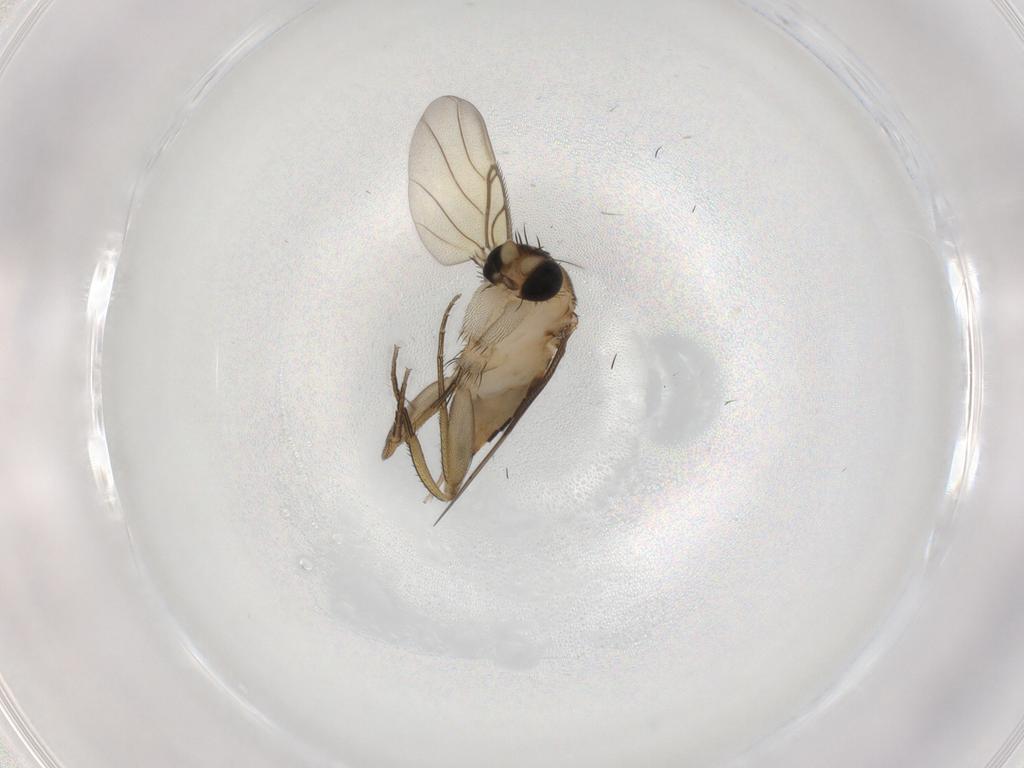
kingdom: Animalia
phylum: Arthropoda
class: Insecta
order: Diptera
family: Phoridae
